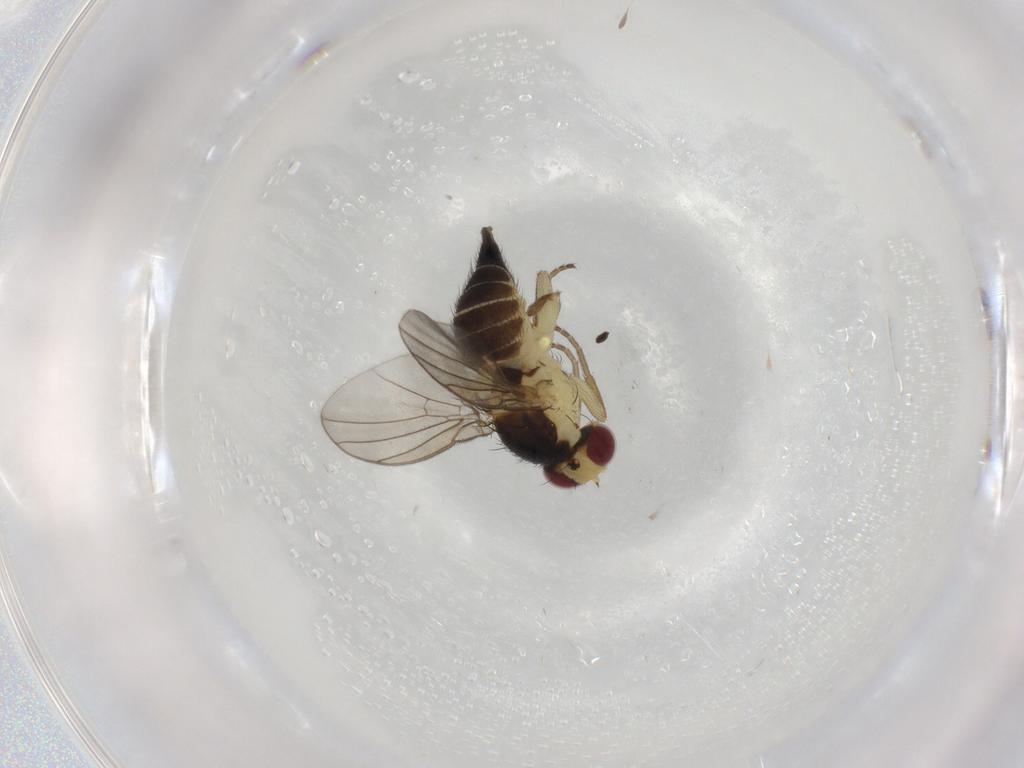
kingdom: Animalia
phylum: Arthropoda
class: Insecta
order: Diptera
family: Agromyzidae
